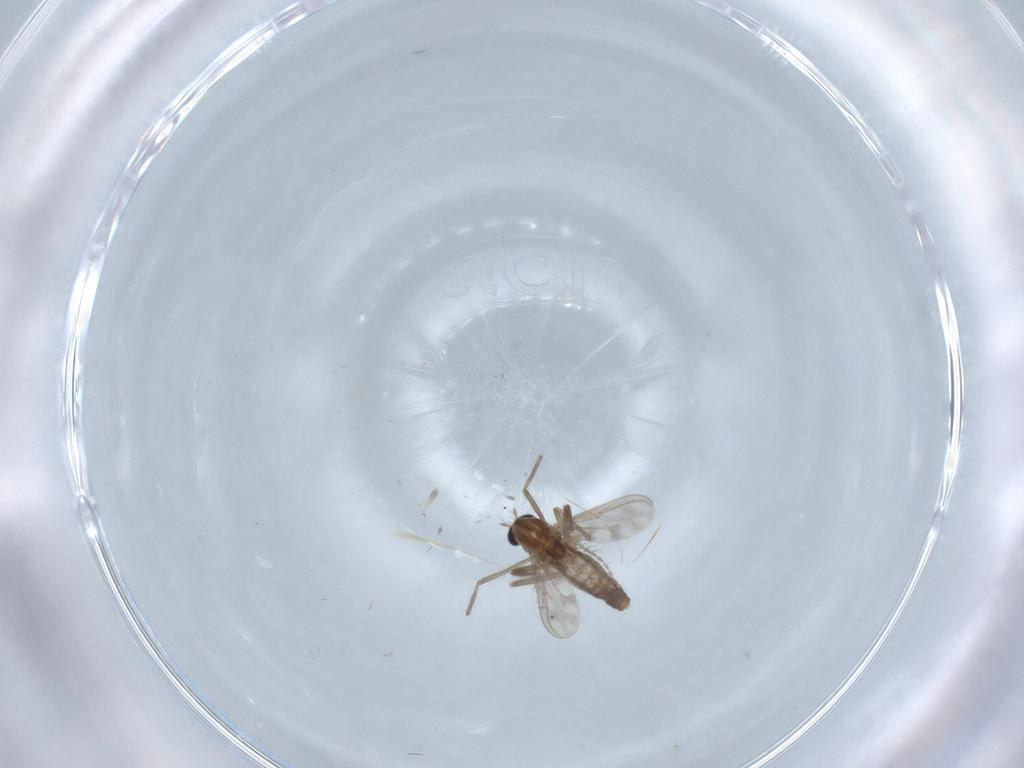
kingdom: Animalia
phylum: Arthropoda
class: Insecta
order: Diptera
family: Ceratopogonidae
